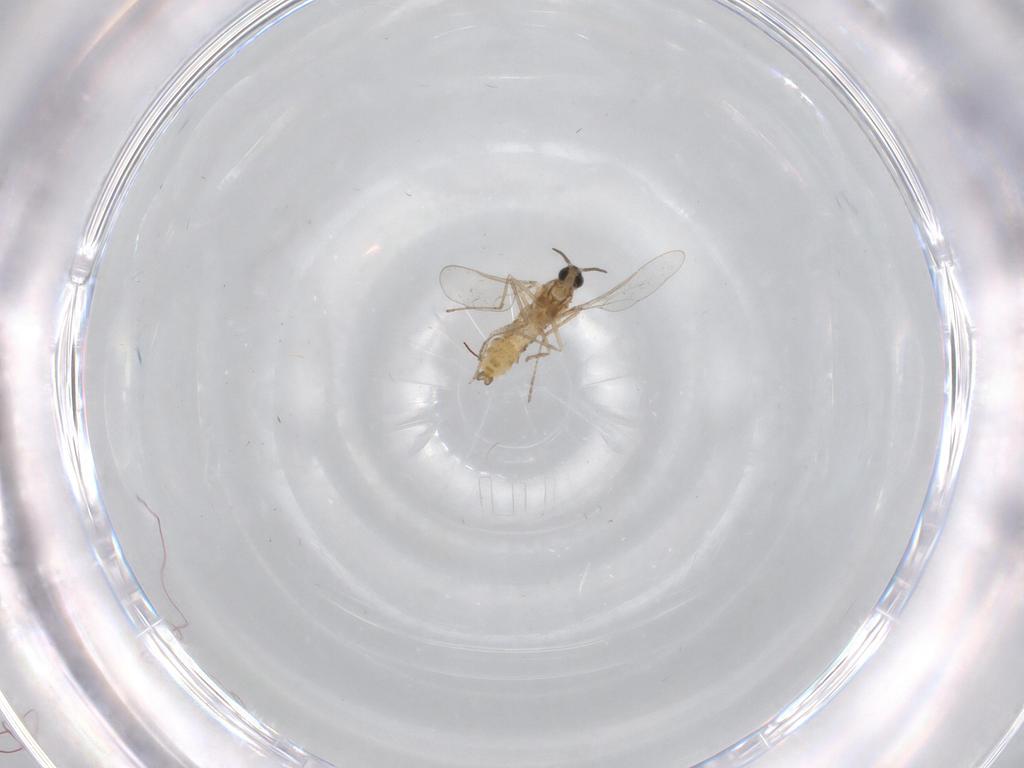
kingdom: Animalia
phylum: Arthropoda
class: Insecta
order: Diptera
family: Cecidomyiidae
